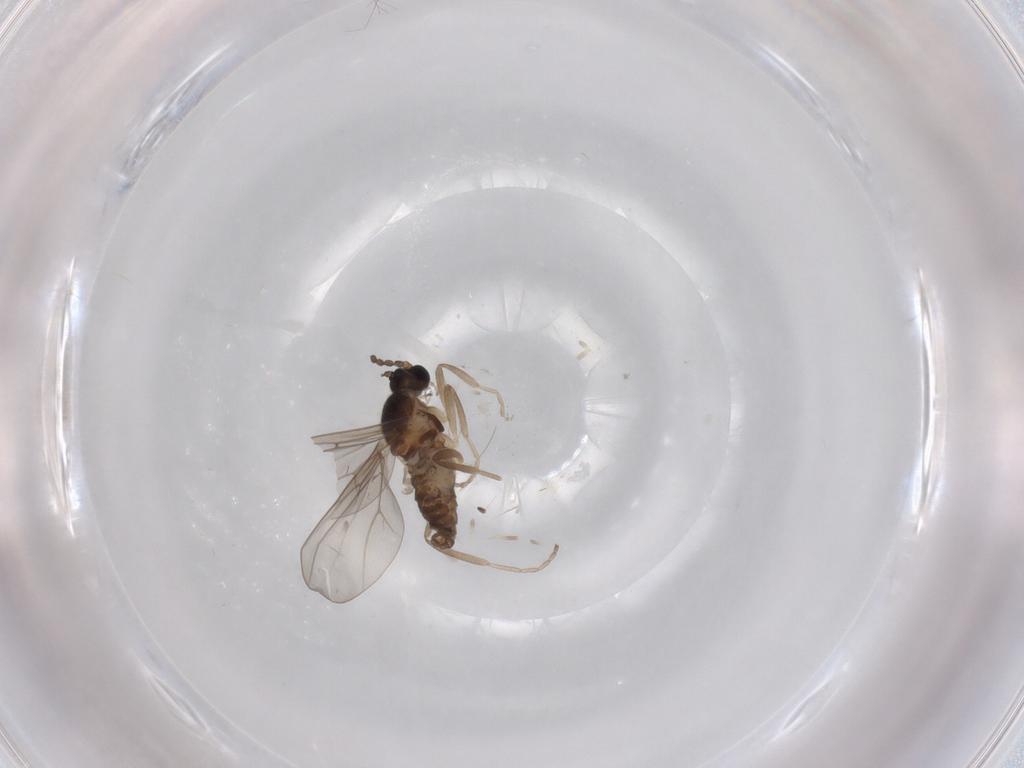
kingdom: Animalia
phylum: Arthropoda
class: Insecta
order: Diptera
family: Cecidomyiidae
